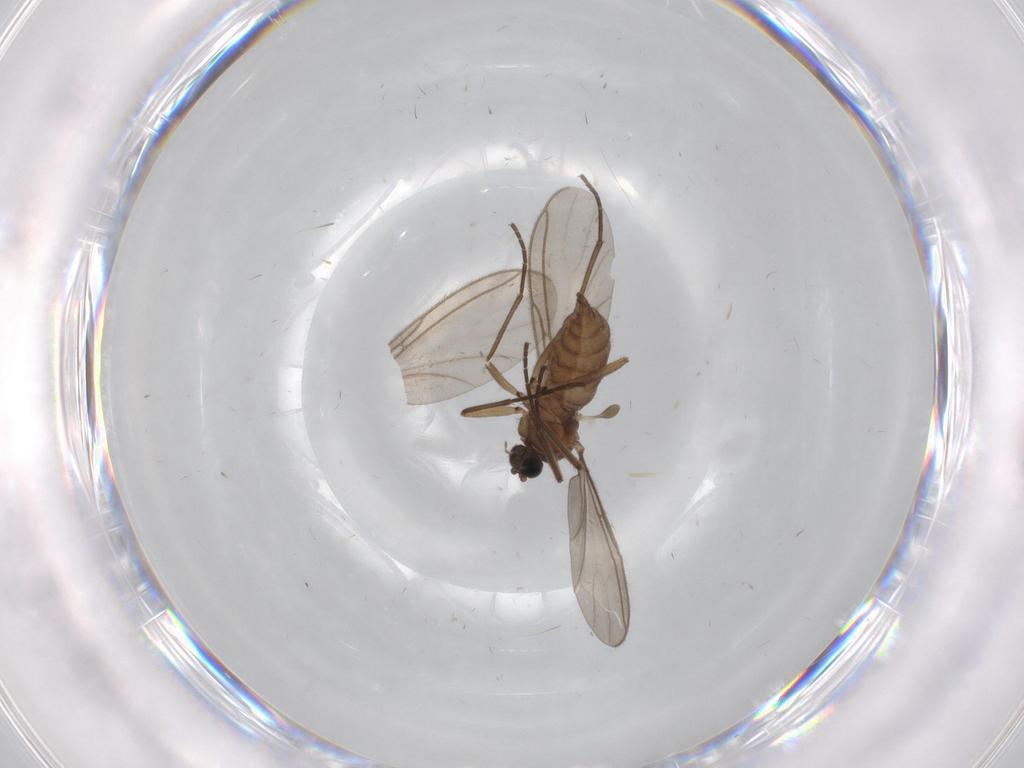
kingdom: Animalia
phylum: Arthropoda
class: Insecta
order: Diptera
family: Sciaridae
